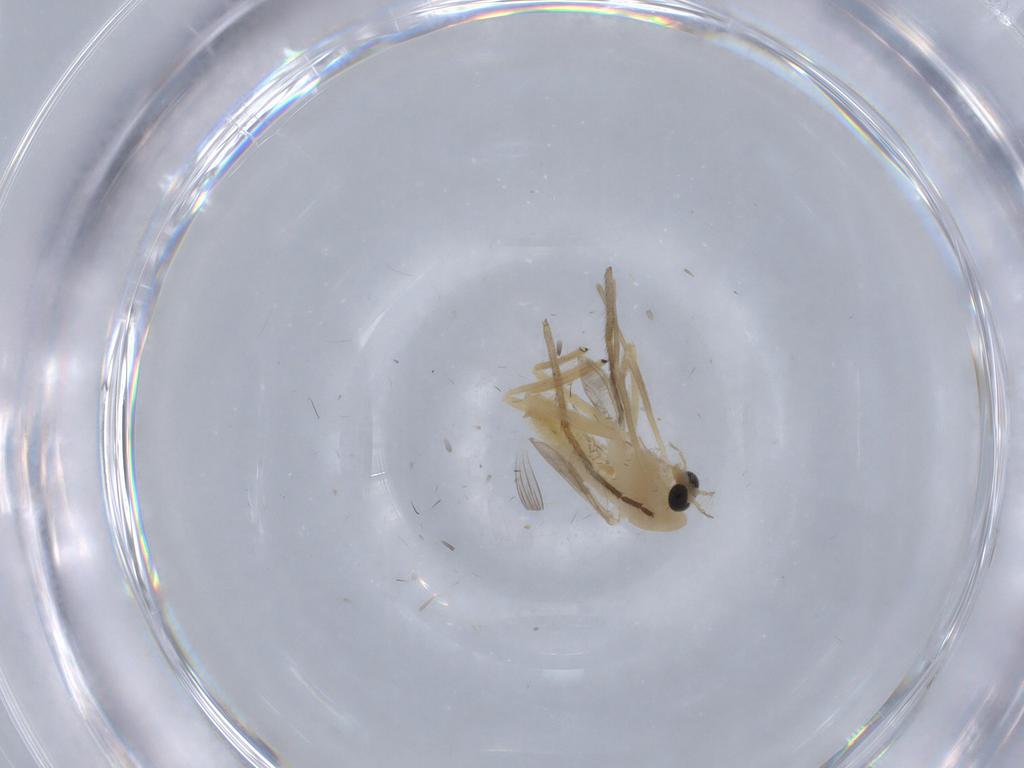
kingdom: Animalia
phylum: Arthropoda
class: Insecta
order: Diptera
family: Chironomidae
